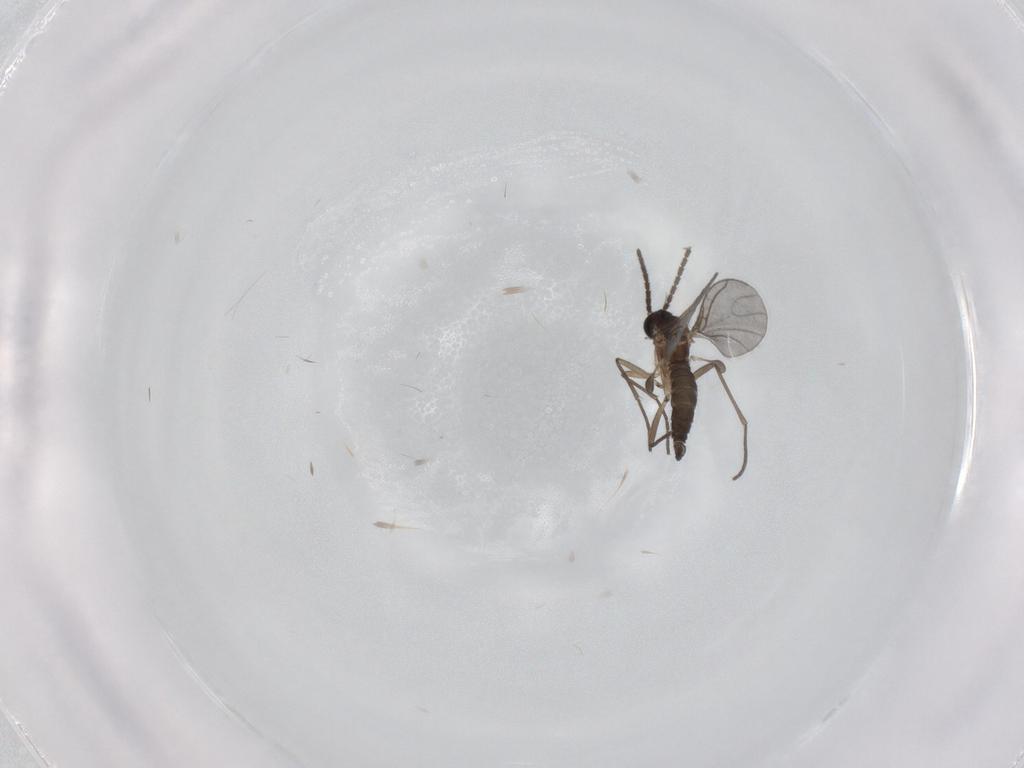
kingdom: Animalia
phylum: Arthropoda
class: Insecta
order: Diptera
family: Sciaridae
